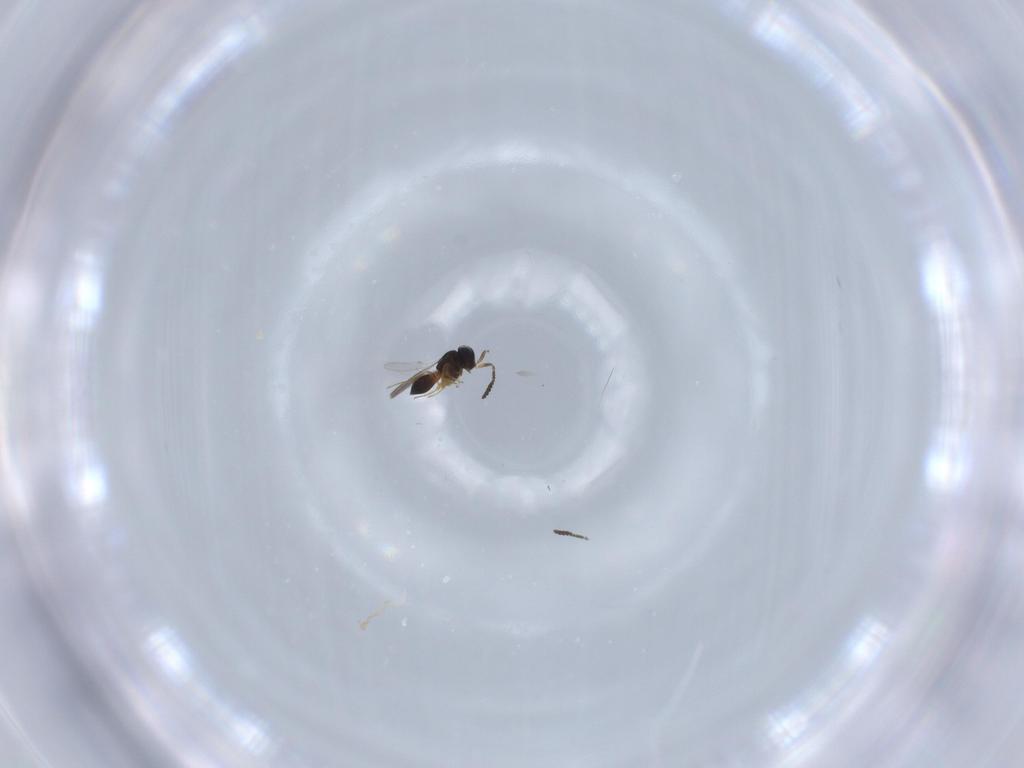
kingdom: Animalia
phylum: Arthropoda
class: Insecta
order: Hymenoptera
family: Scelionidae
